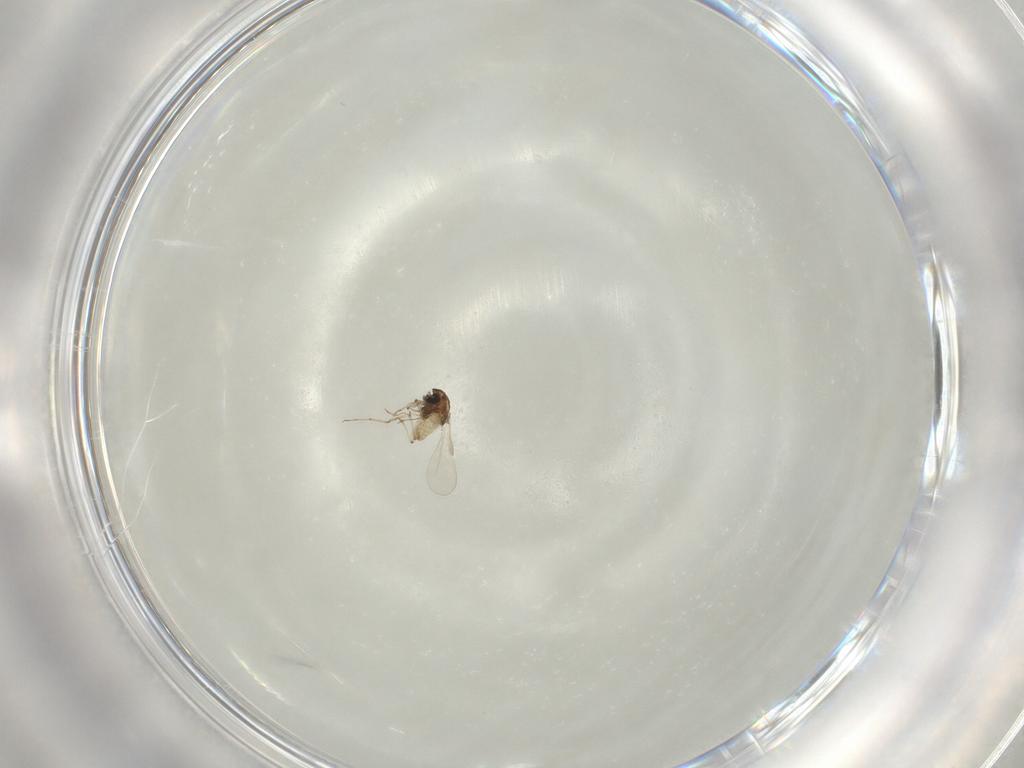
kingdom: Animalia
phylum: Arthropoda
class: Insecta
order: Diptera
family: Chironomidae
